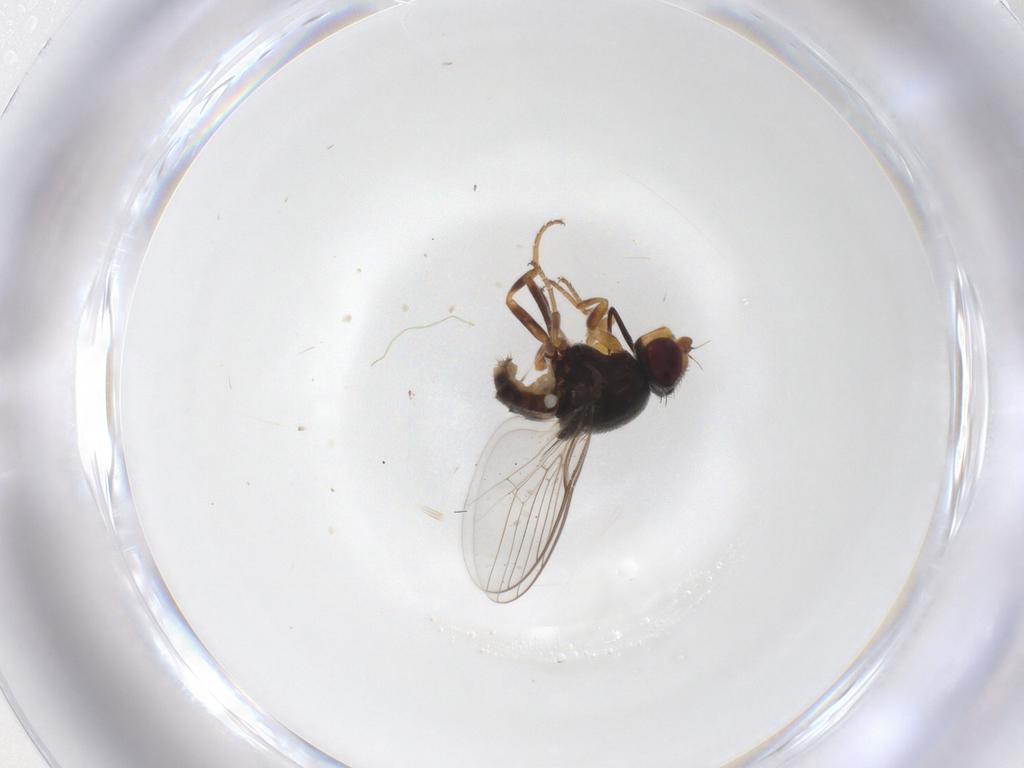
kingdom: Animalia
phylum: Arthropoda
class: Insecta
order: Diptera
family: Chloropidae
